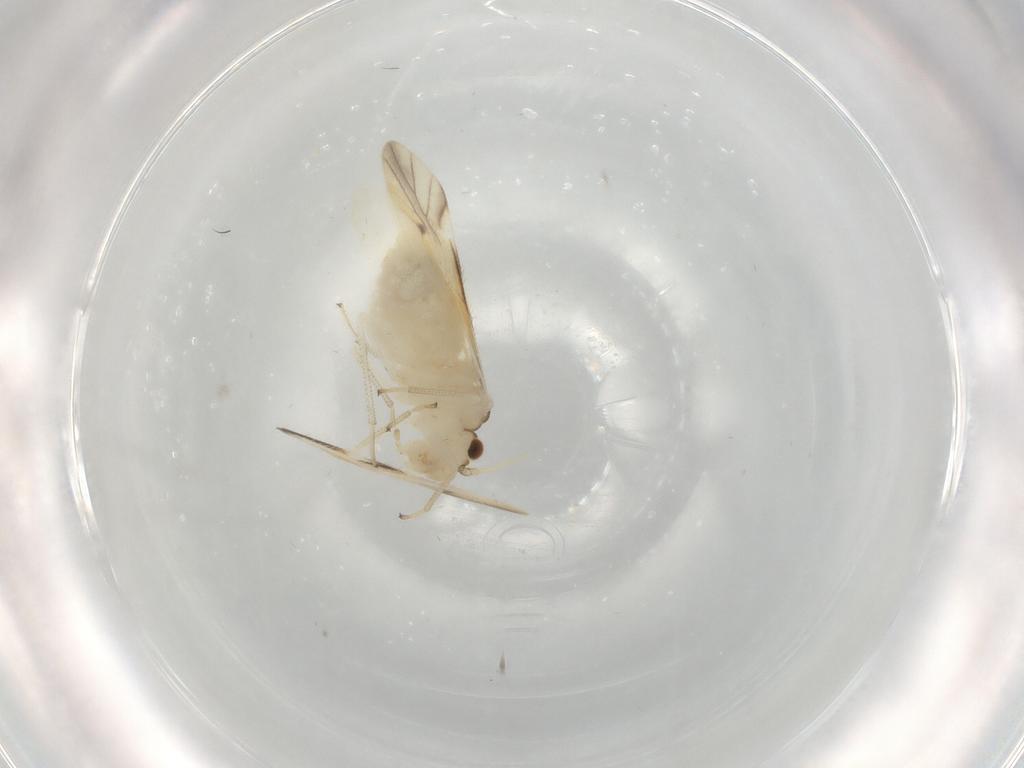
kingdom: Animalia
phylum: Arthropoda
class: Insecta
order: Psocodea
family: Caeciliusidae
